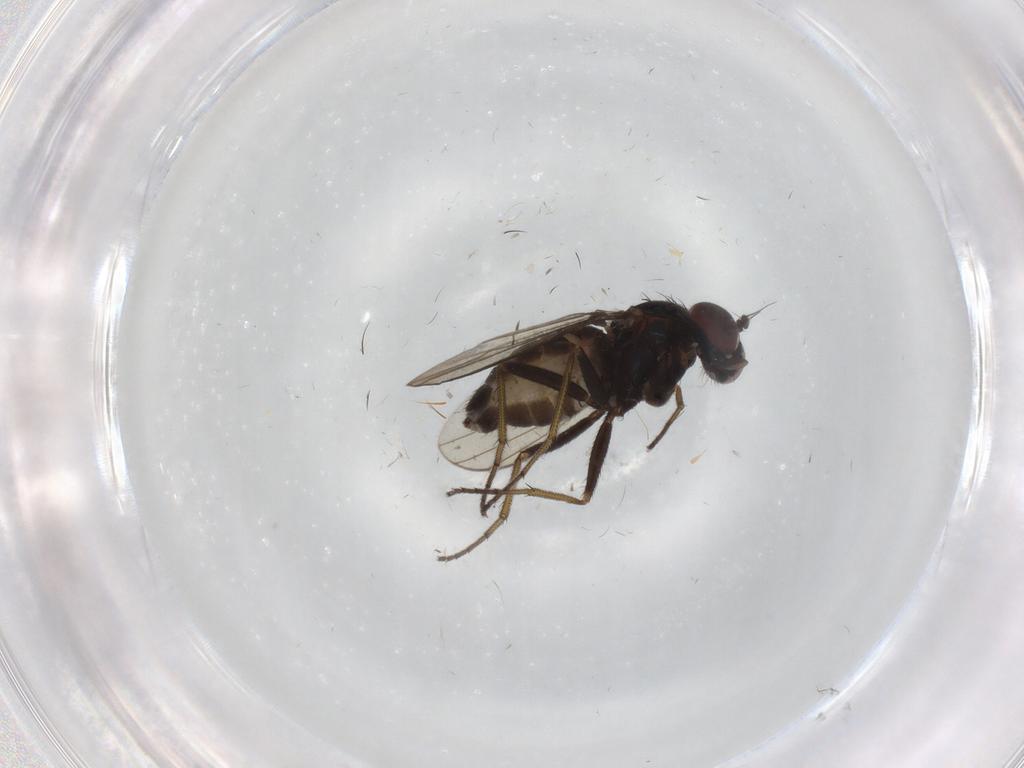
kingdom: Animalia
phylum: Arthropoda
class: Insecta
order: Diptera
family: Dolichopodidae
